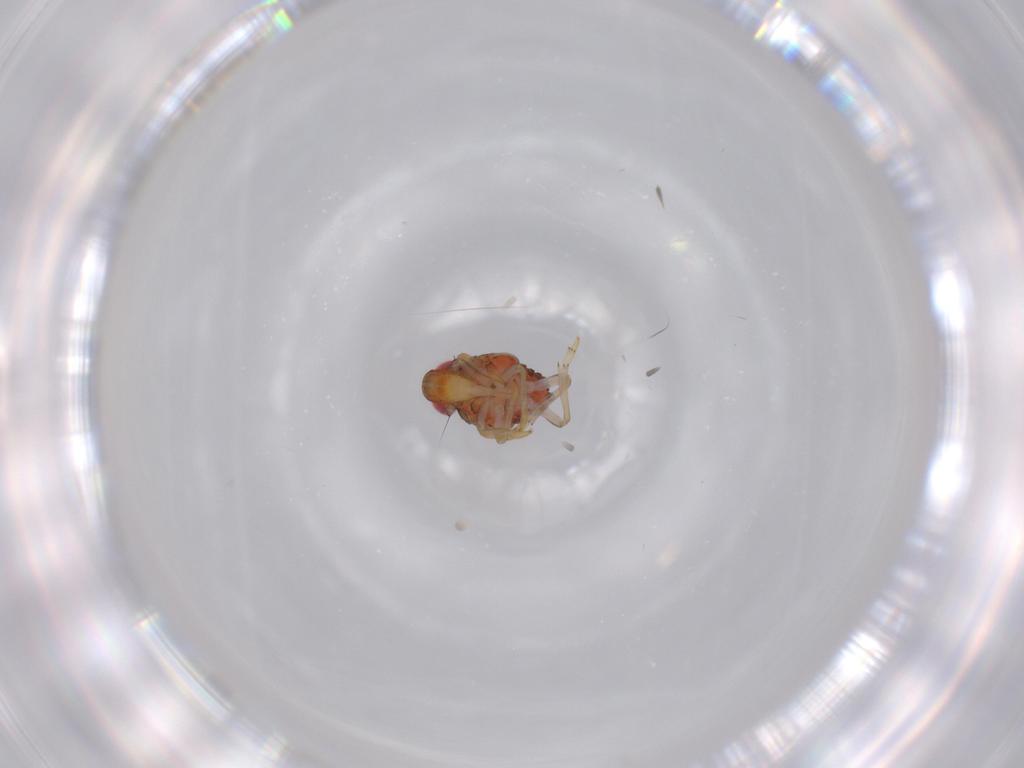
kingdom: Animalia
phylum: Arthropoda
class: Insecta
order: Hemiptera
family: Issidae
